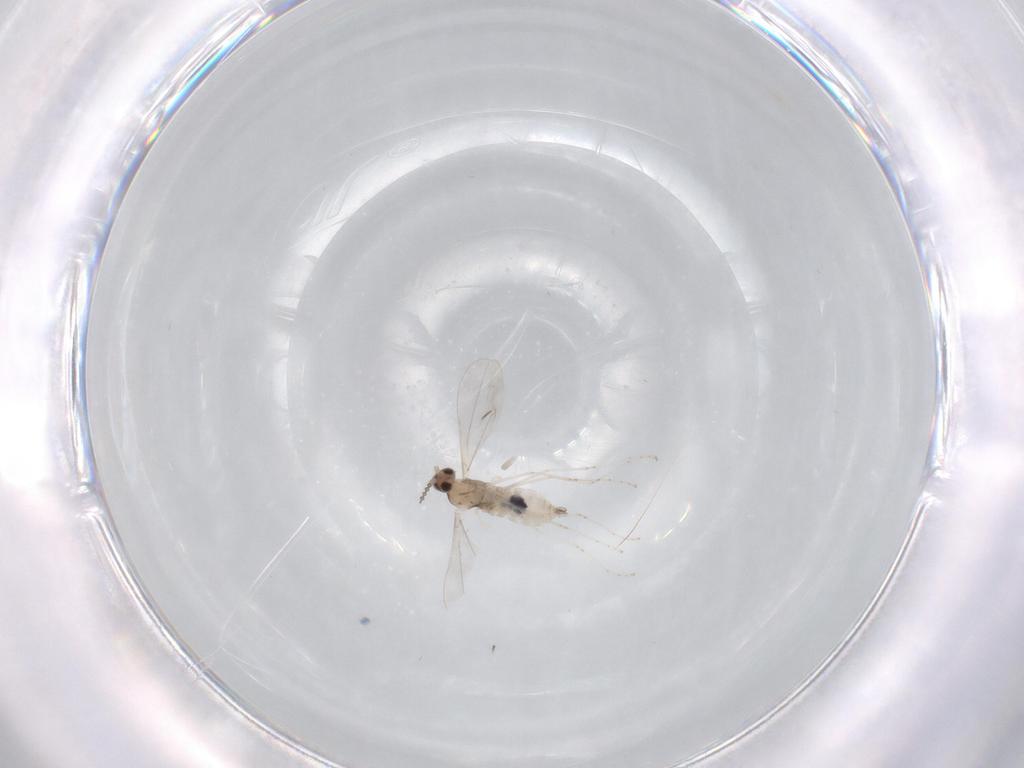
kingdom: Animalia
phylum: Arthropoda
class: Insecta
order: Diptera
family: Cecidomyiidae
